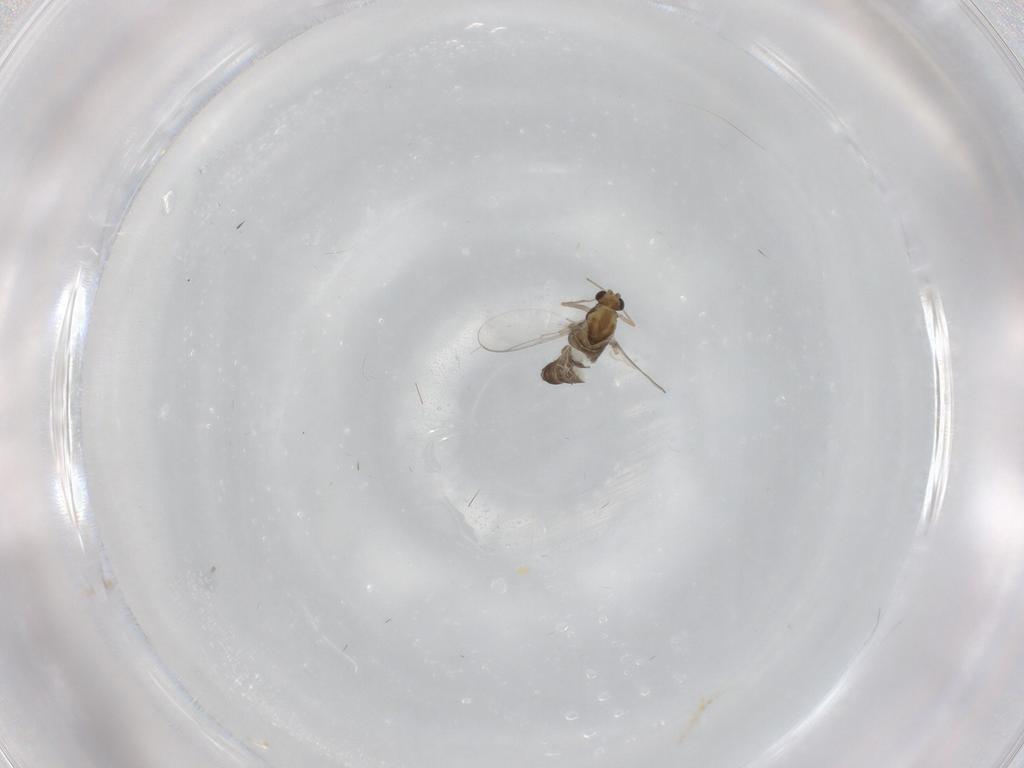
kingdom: Animalia
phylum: Arthropoda
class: Insecta
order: Diptera
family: Chironomidae
